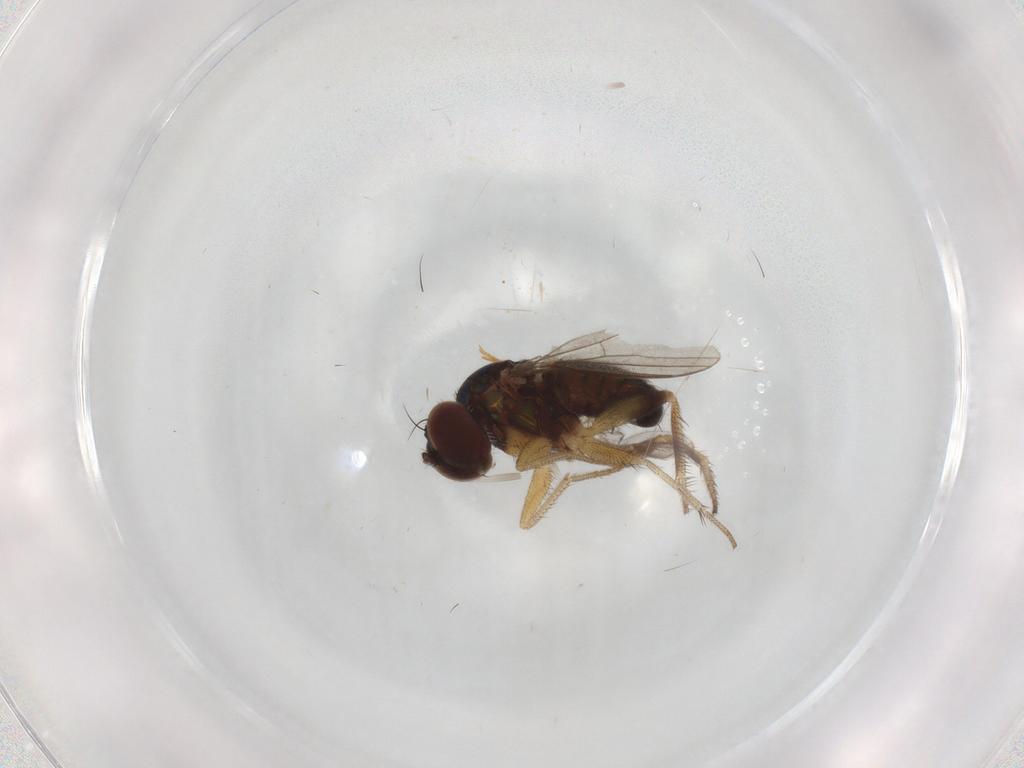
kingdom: Animalia
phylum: Arthropoda
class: Insecta
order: Diptera
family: Dolichopodidae
